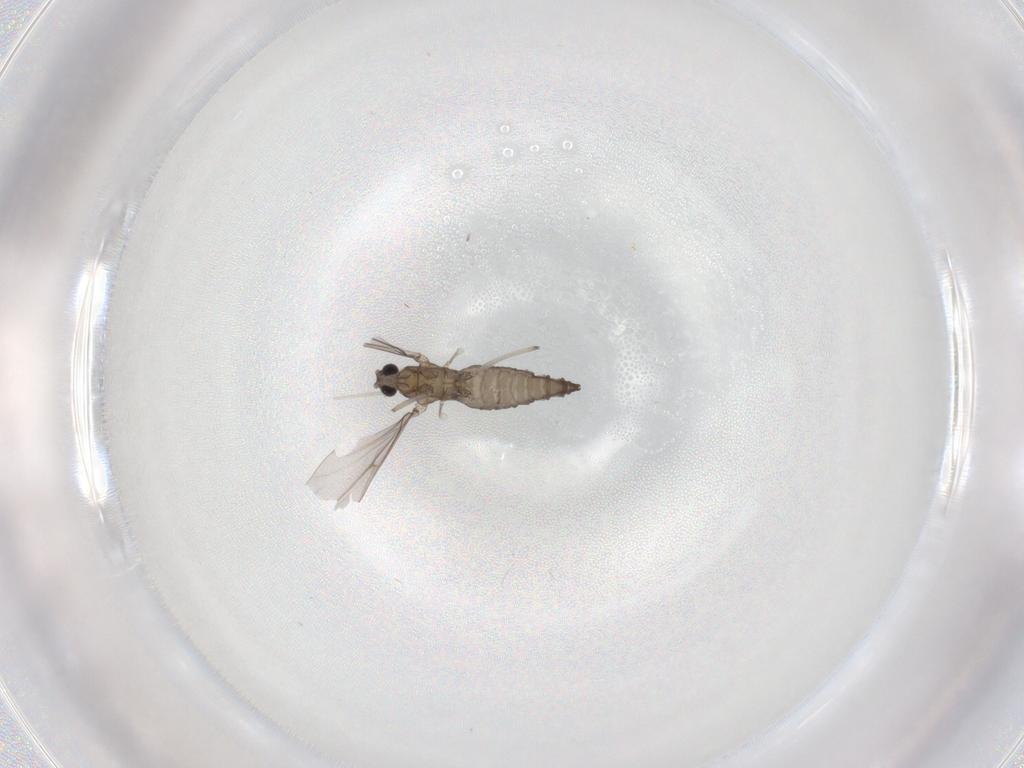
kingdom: Animalia
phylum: Arthropoda
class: Insecta
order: Diptera
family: Cecidomyiidae
